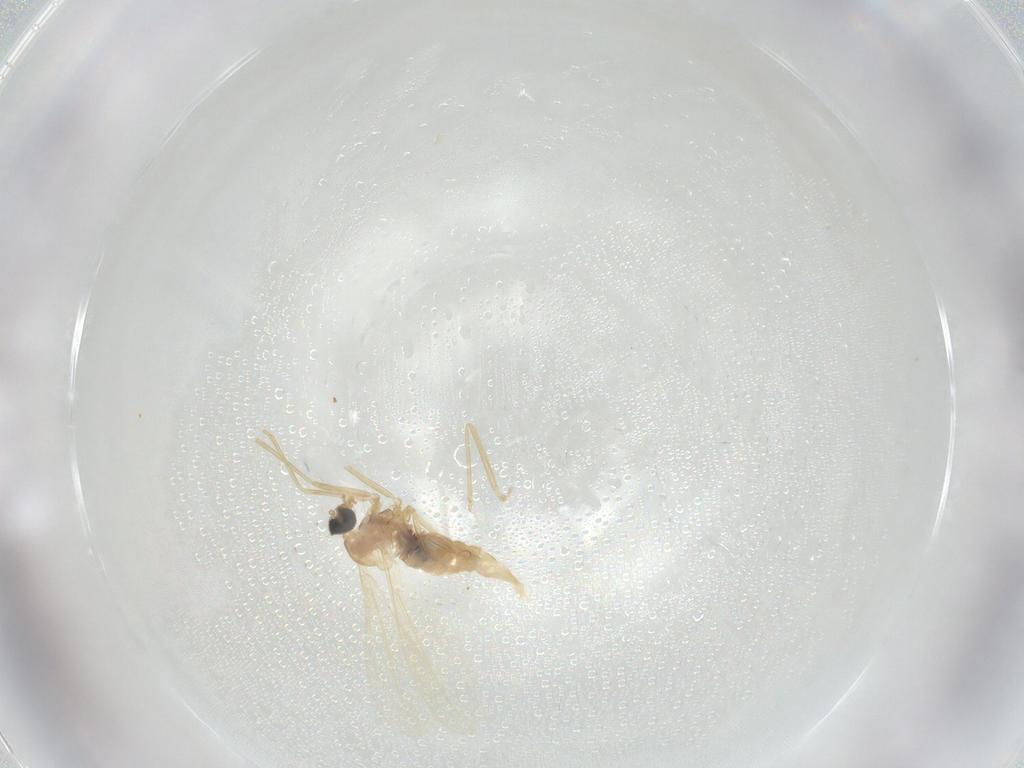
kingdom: Animalia
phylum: Arthropoda
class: Insecta
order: Diptera
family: Cecidomyiidae
